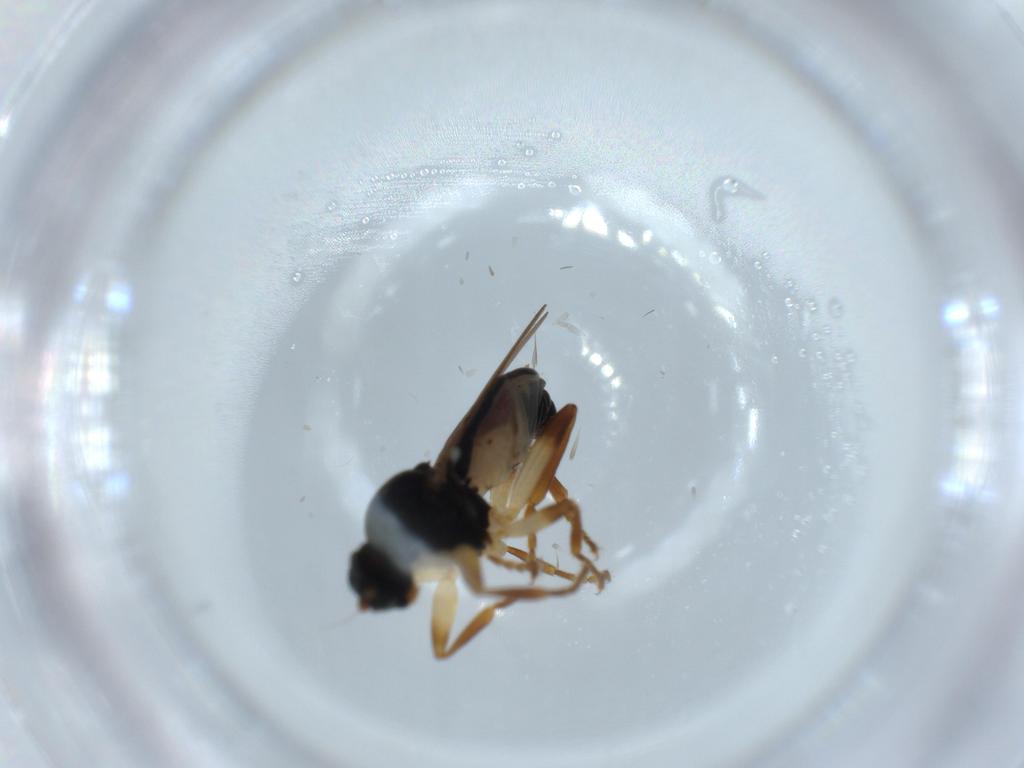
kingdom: Animalia
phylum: Arthropoda
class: Insecta
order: Diptera
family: Sphaeroceridae
